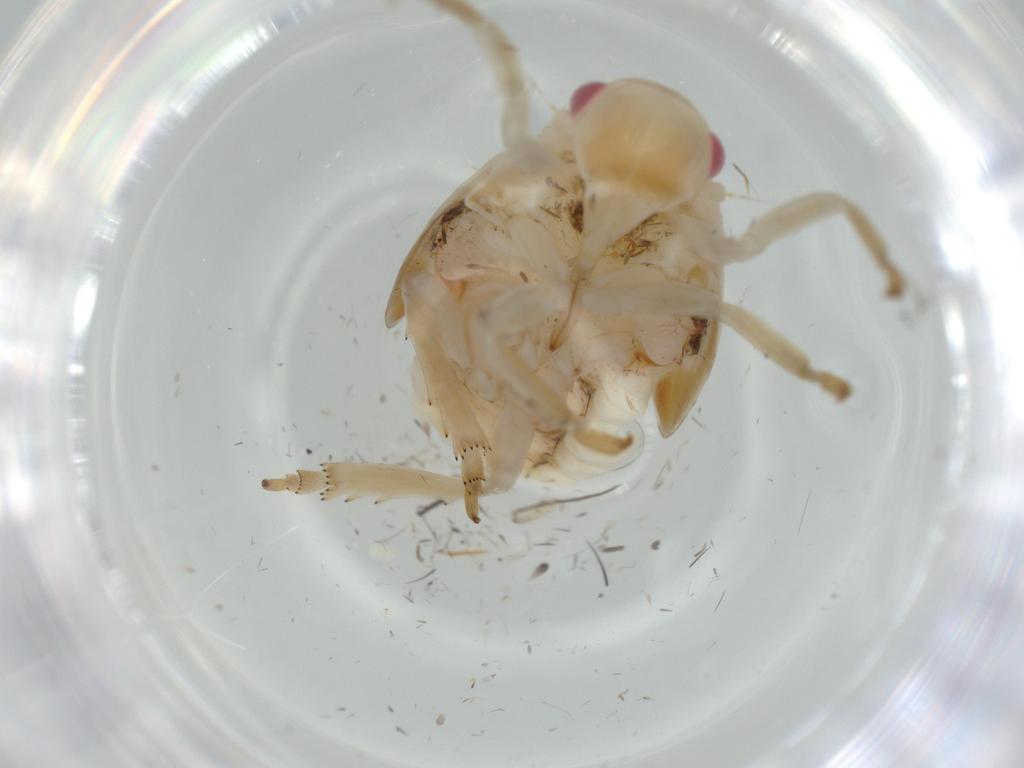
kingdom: Animalia
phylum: Arthropoda
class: Insecta
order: Hemiptera
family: Flatidae
